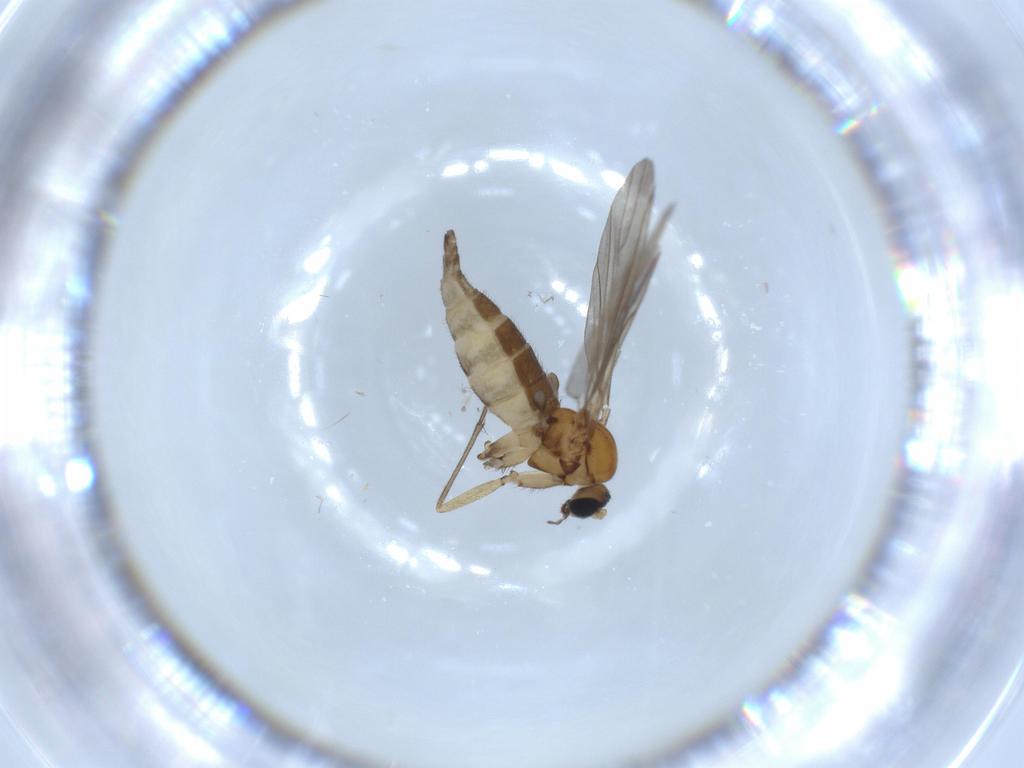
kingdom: Animalia
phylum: Arthropoda
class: Insecta
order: Diptera
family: Sciaridae
